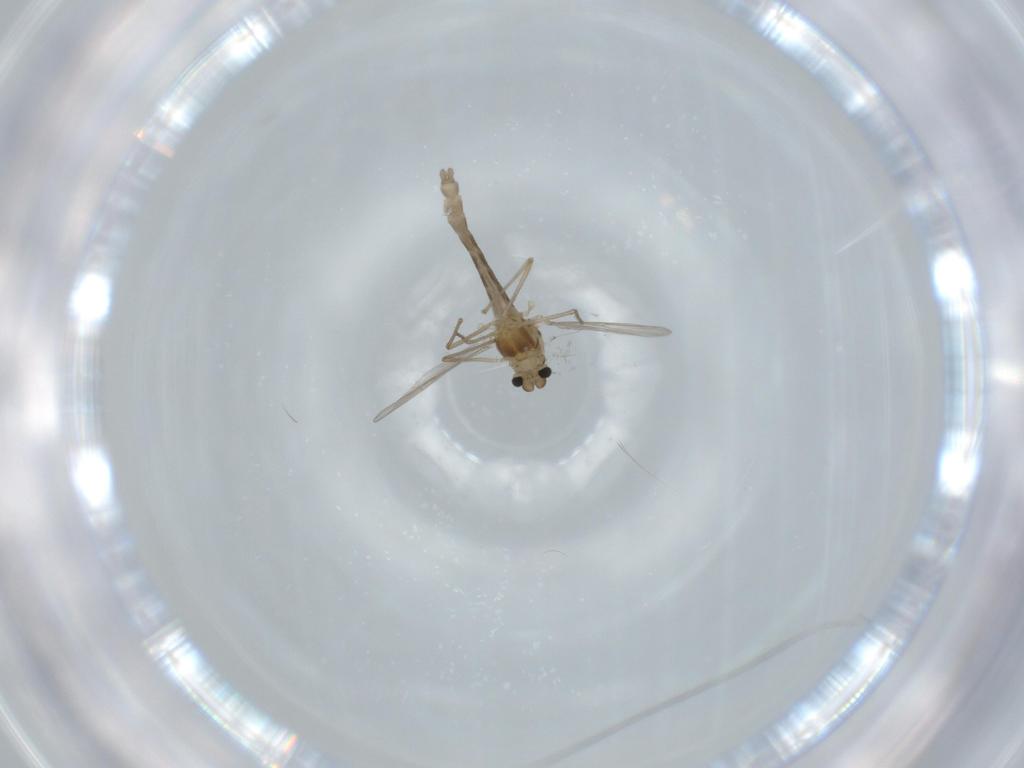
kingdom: Animalia
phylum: Arthropoda
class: Insecta
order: Diptera
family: Chironomidae
